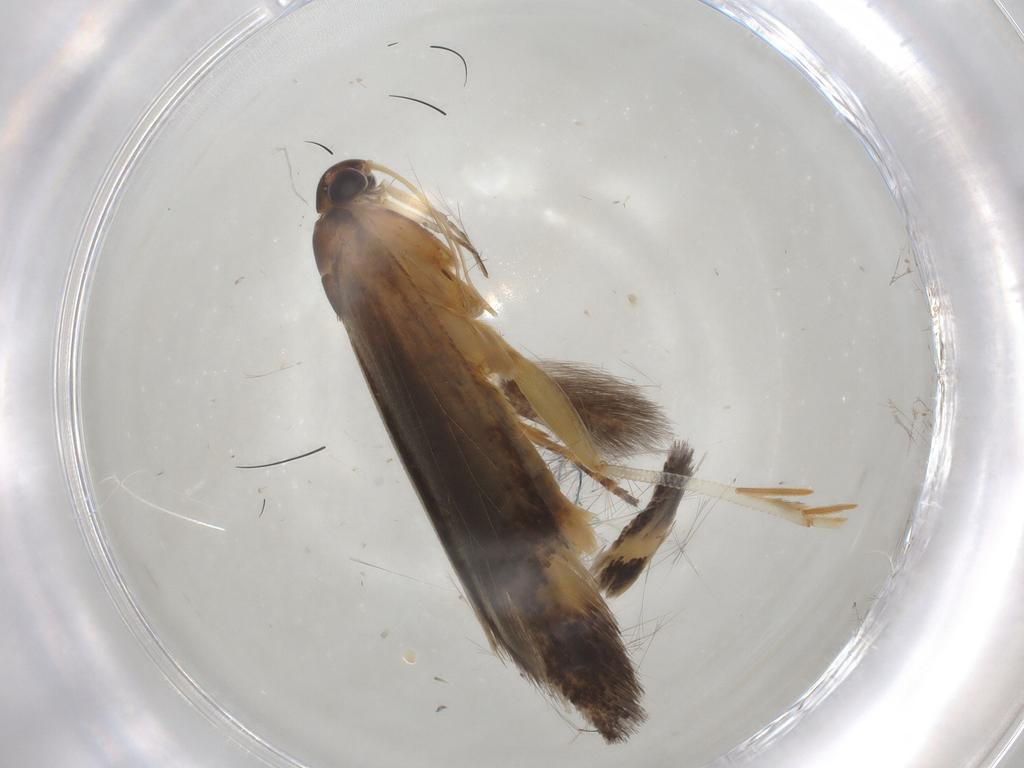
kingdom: Animalia
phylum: Arthropoda
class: Insecta
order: Lepidoptera
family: Gelechiidae
